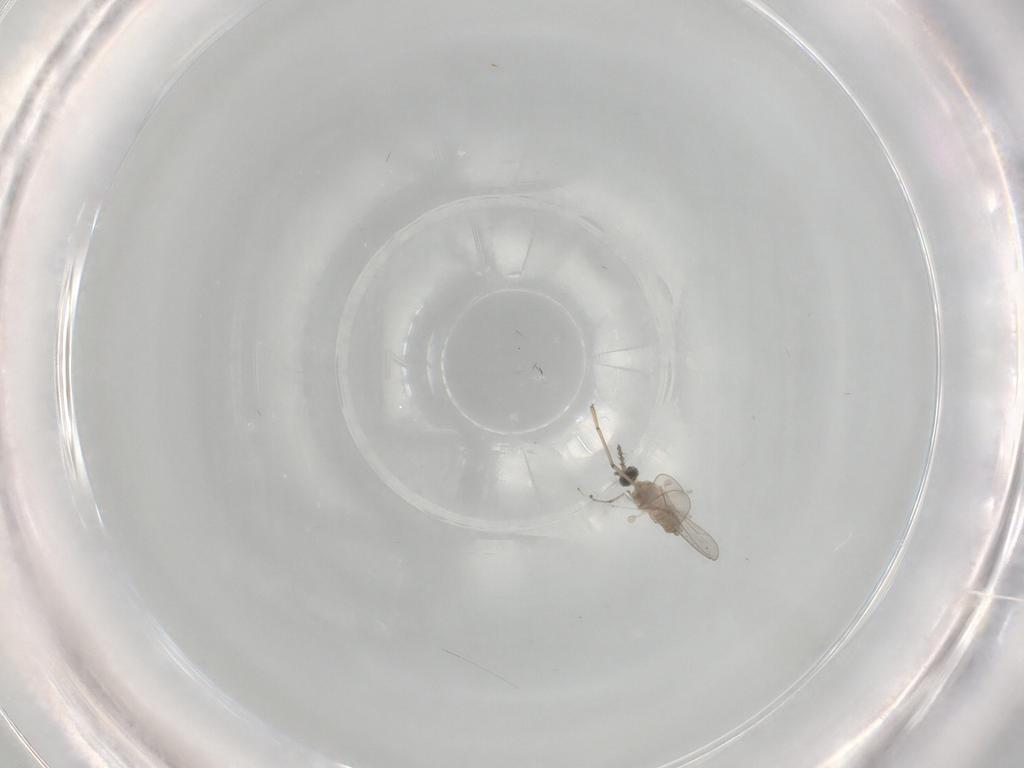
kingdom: Animalia
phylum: Arthropoda
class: Insecta
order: Diptera
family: Cecidomyiidae
